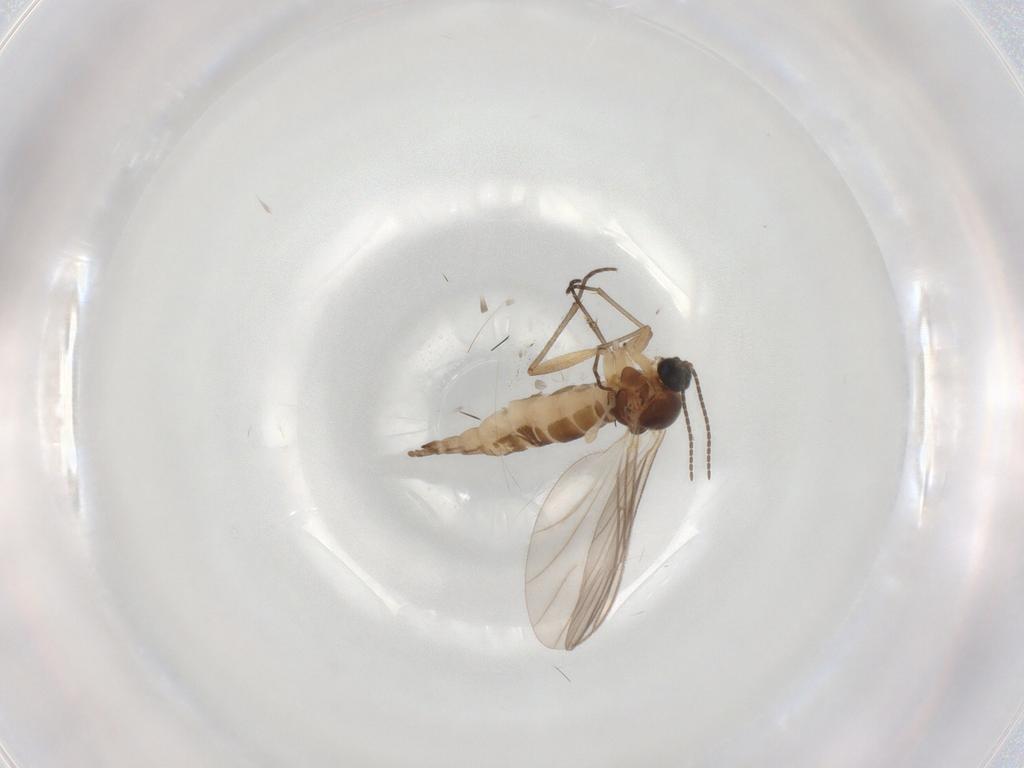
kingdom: Animalia
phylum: Arthropoda
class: Insecta
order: Diptera
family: Sciaridae
